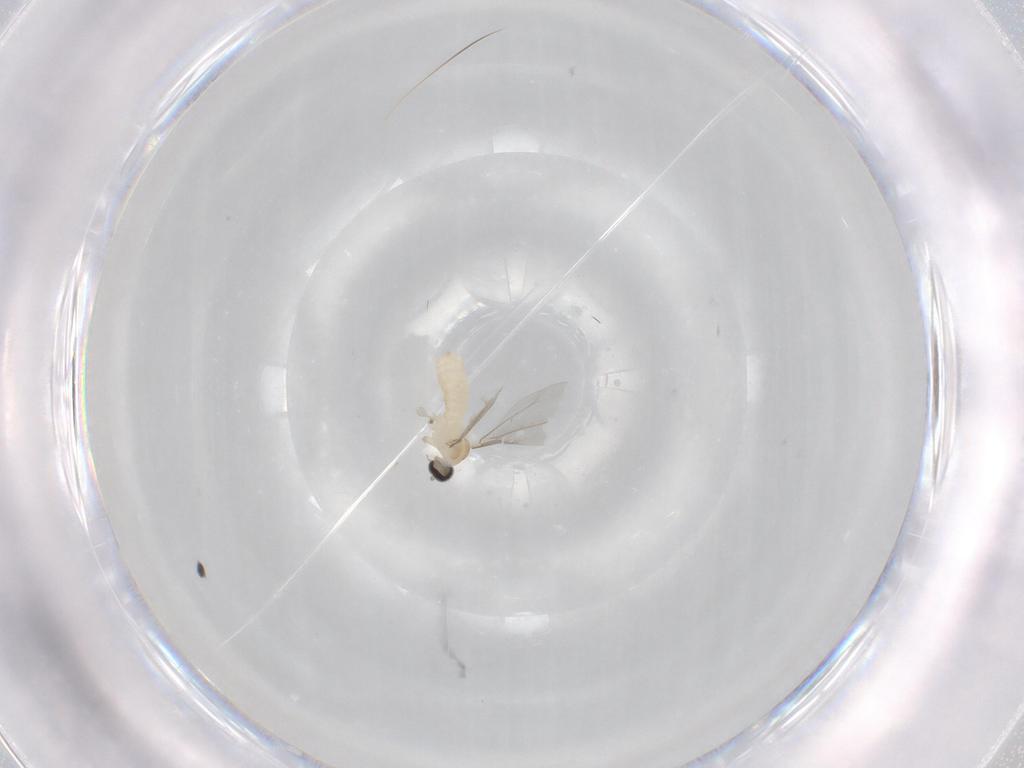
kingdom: Animalia
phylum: Arthropoda
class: Insecta
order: Diptera
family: Cecidomyiidae
